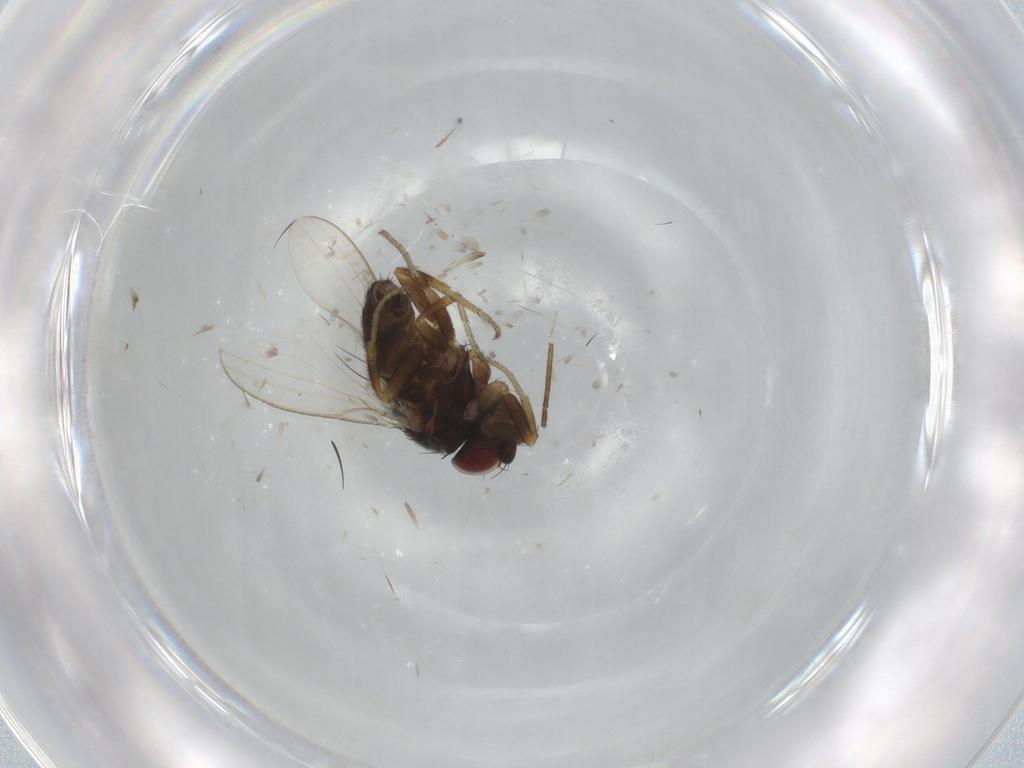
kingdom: Animalia
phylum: Arthropoda
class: Insecta
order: Diptera
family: Milichiidae
